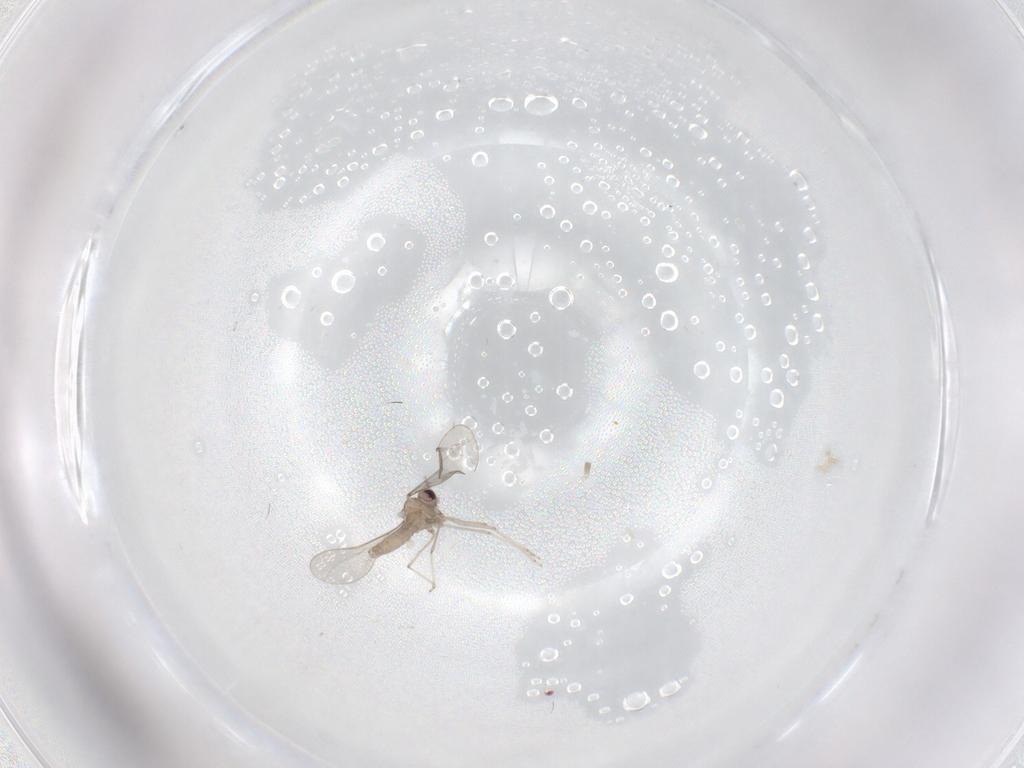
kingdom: Animalia
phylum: Arthropoda
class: Insecta
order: Diptera
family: Cecidomyiidae
